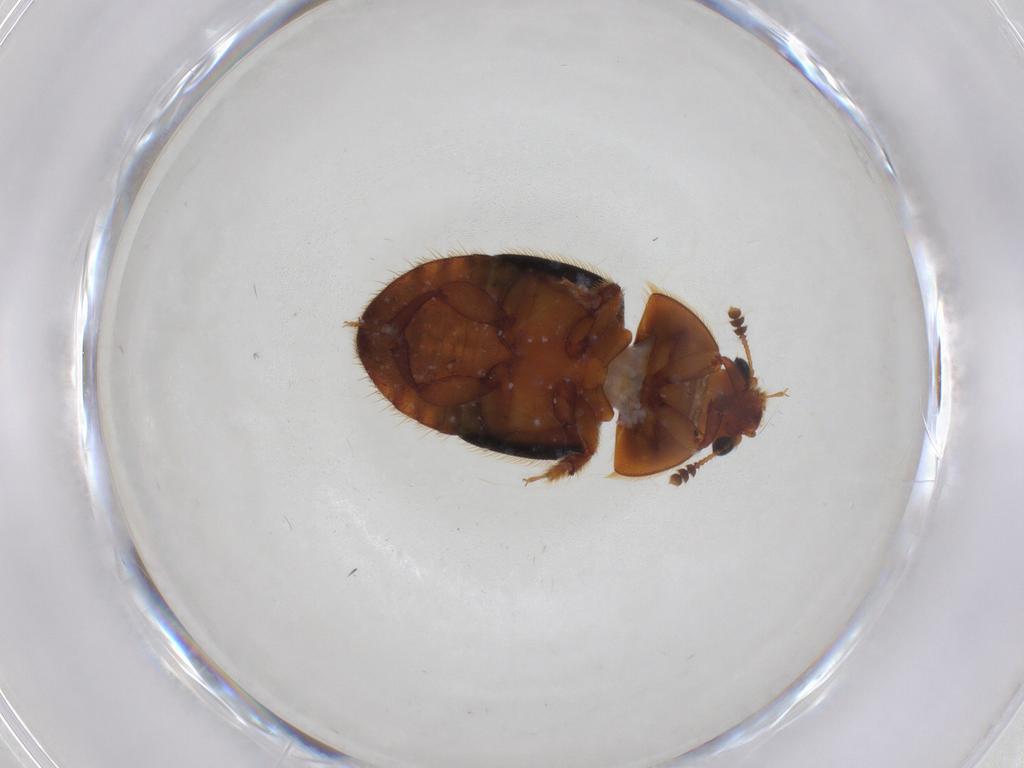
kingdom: Animalia
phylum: Arthropoda
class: Insecta
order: Coleoptera
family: Nitidulidae
